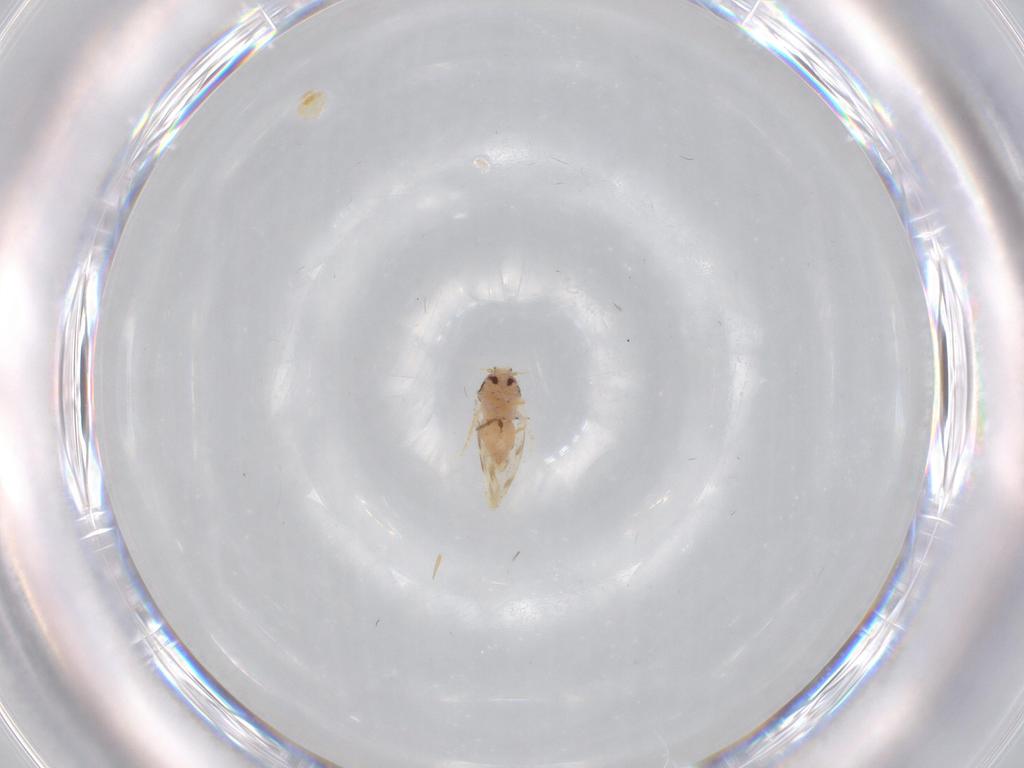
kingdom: Animalia
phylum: Arthropoda
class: Insecta
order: Hemiptera
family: Aleyrodidae
